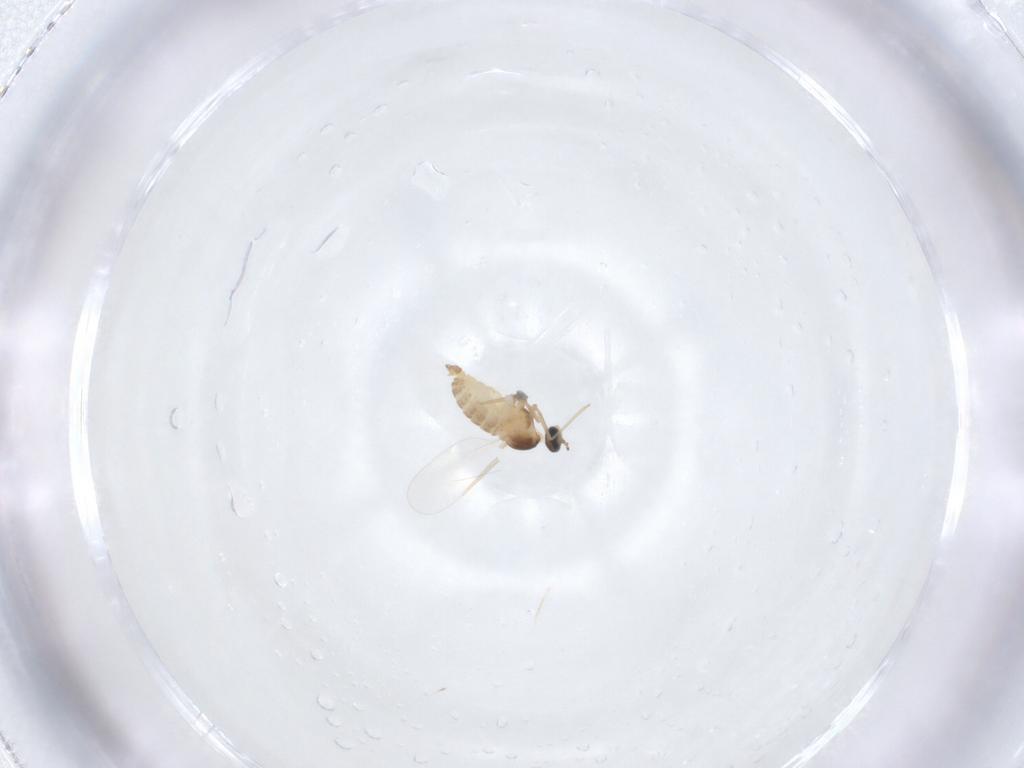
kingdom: Animalia
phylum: Arthropoda
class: Insecta
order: Diptera
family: Cecidomyiidae
